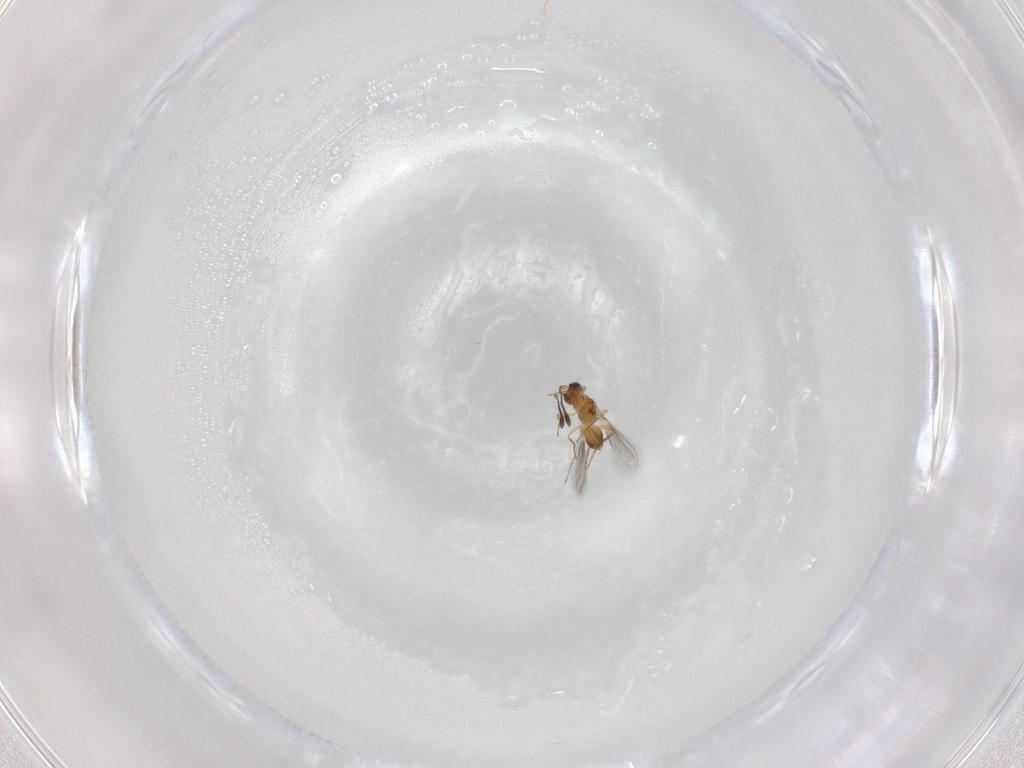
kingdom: Animalia
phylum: Arthropoda
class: Insecta
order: Hymenoptera
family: Mymaridae
